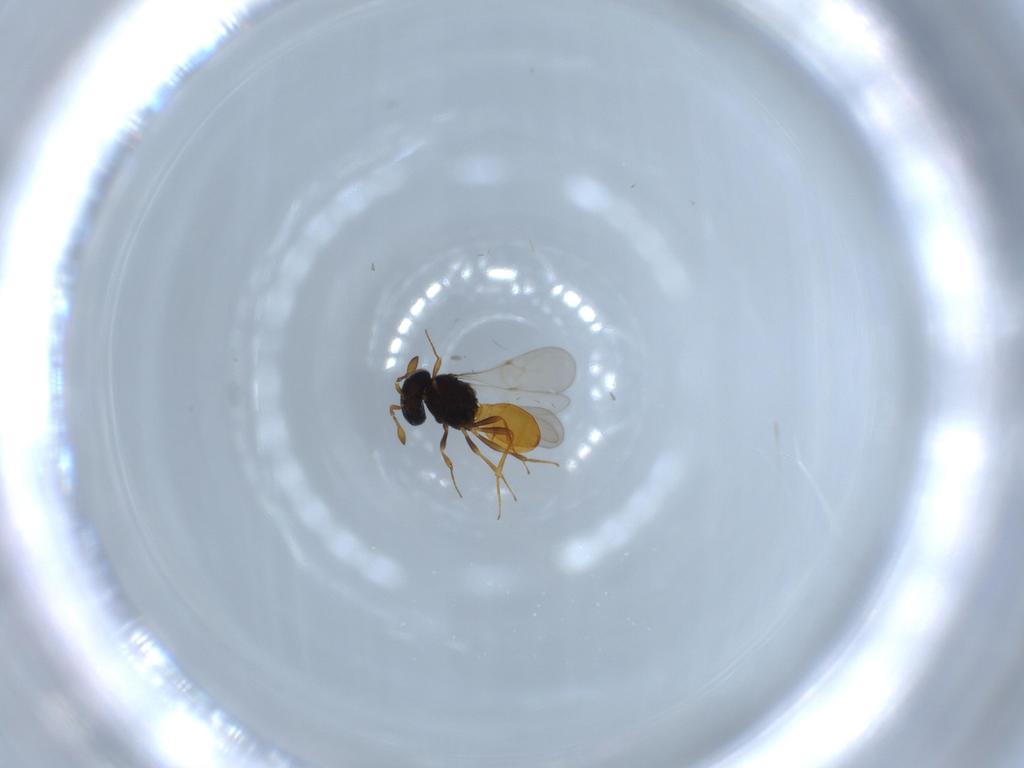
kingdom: Animalia
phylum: Arthropoda
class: Insecta
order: Hymenoptera
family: Scelionidae
